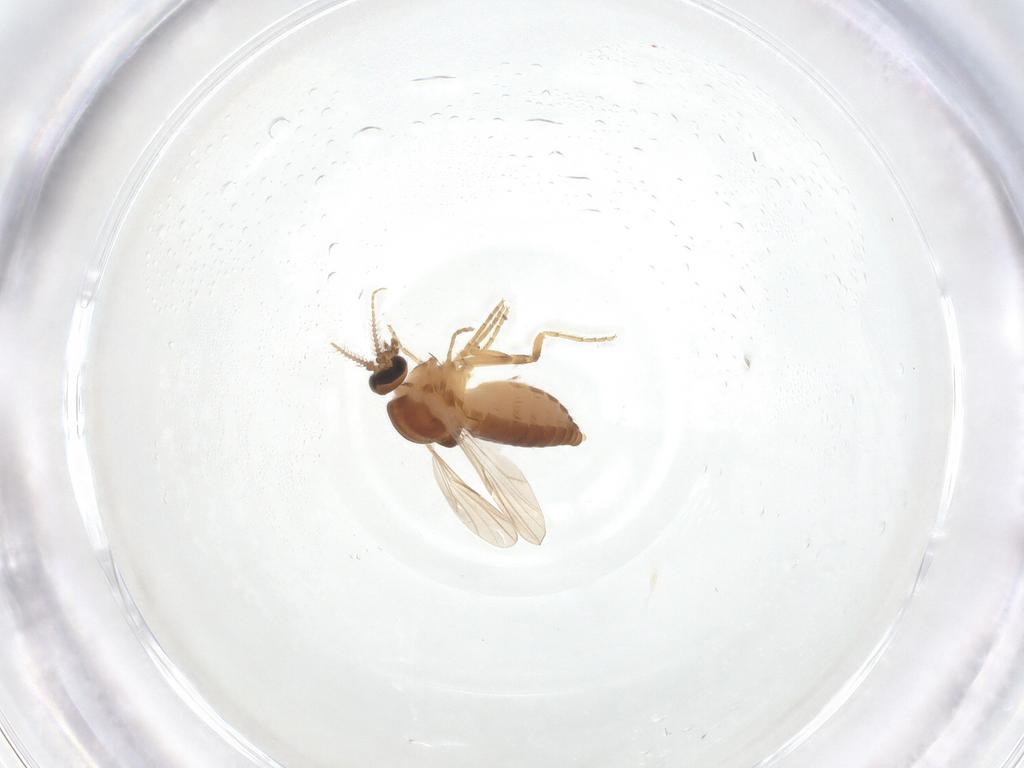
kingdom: Animalia
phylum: Arthropoda
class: Insecta
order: Diptera
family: Ceratopogonidae
